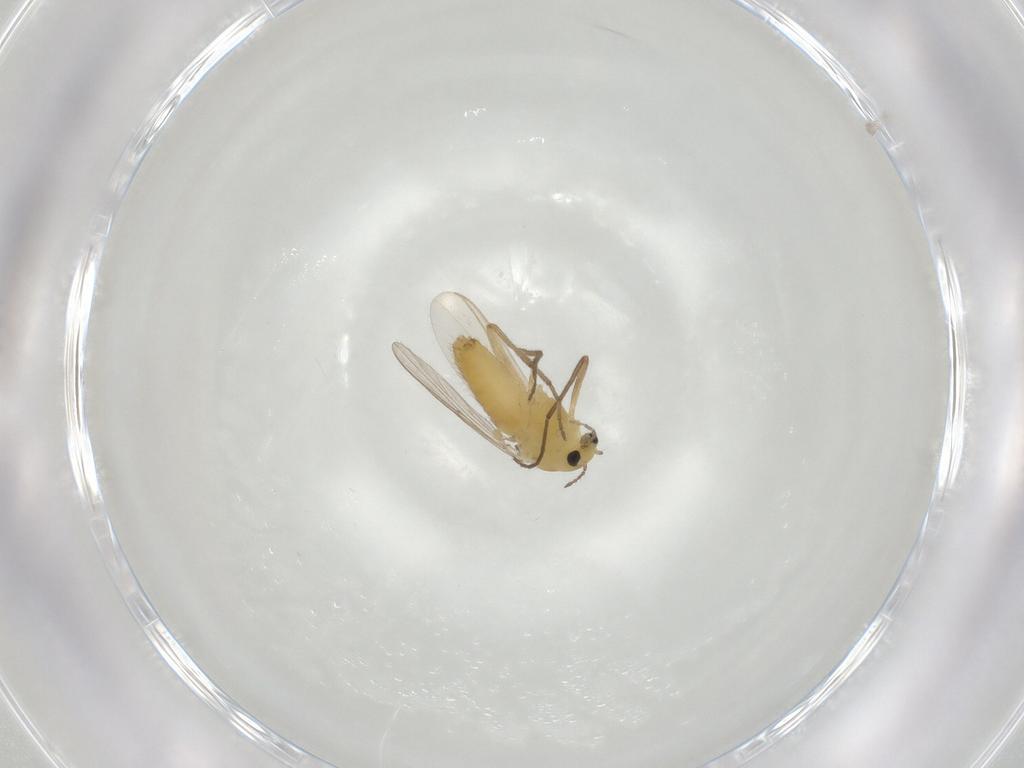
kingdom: Animalia
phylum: Arthropoda
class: Insecta
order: Diptera
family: Chironomidae
